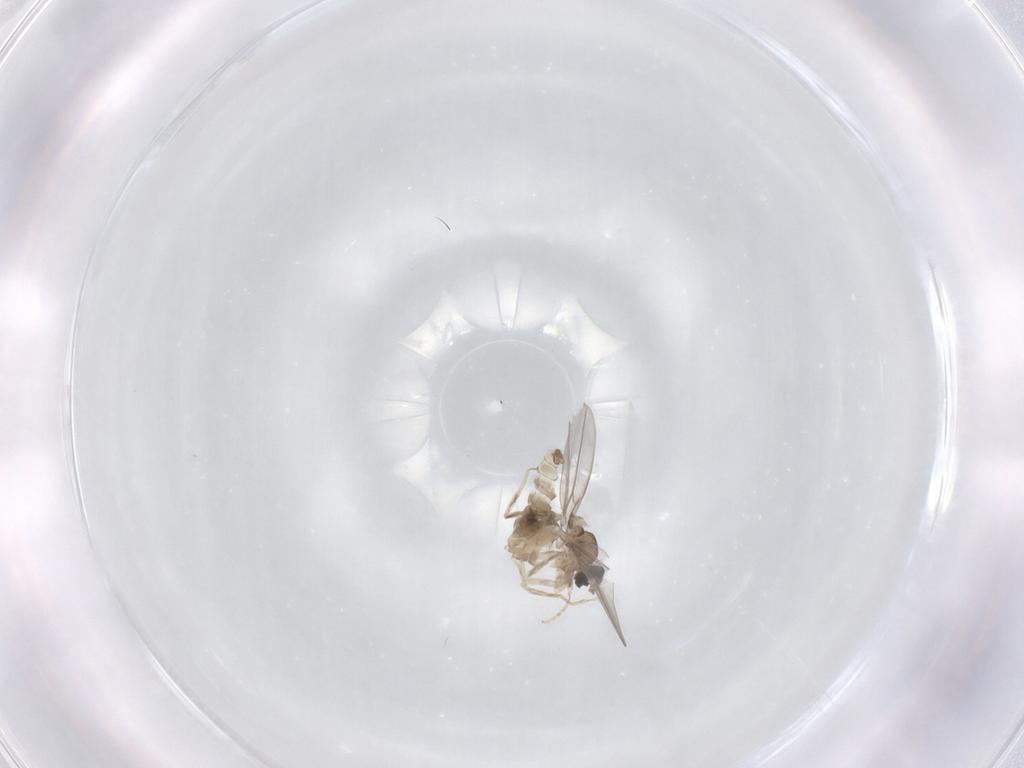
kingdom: Animalia
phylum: Arthropoda
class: Insecta
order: Diptera
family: Cecidomyiidae
